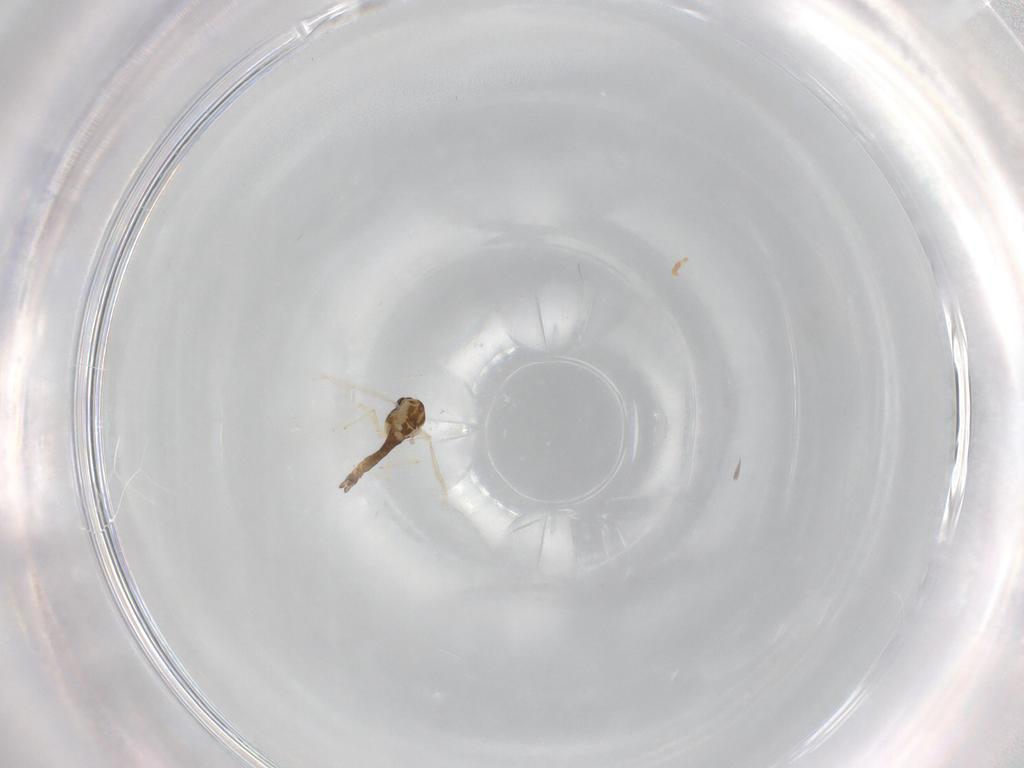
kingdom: Animalia
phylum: Arthropoda
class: Insecta
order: Diptera
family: Chironomidae
